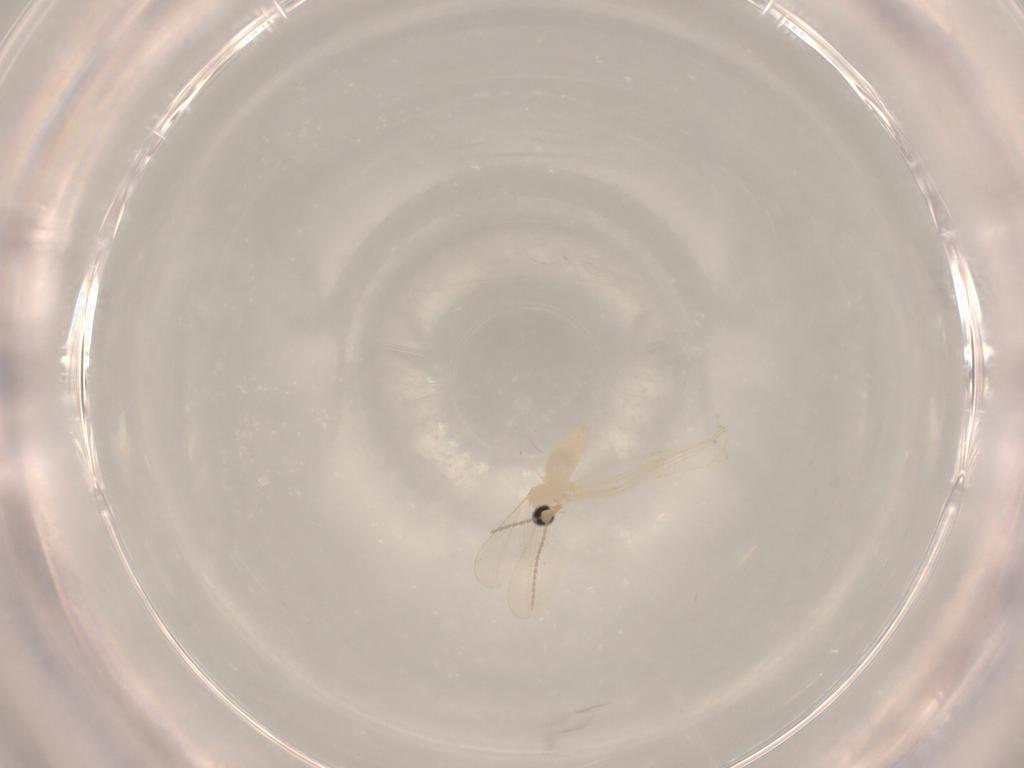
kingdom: Animalia
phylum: Arthropoda
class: Insecta
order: Diptera
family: Cecidomyiidae
